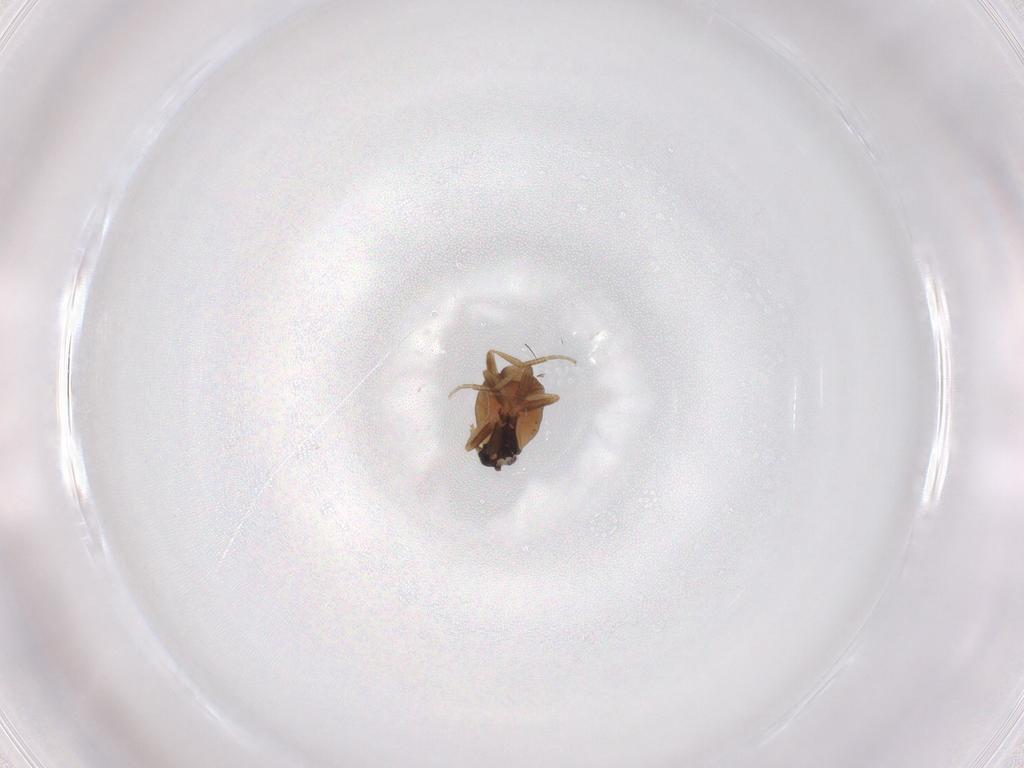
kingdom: Animalia
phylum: Arthropoda
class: Insecta
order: Diptera
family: Phoridae
